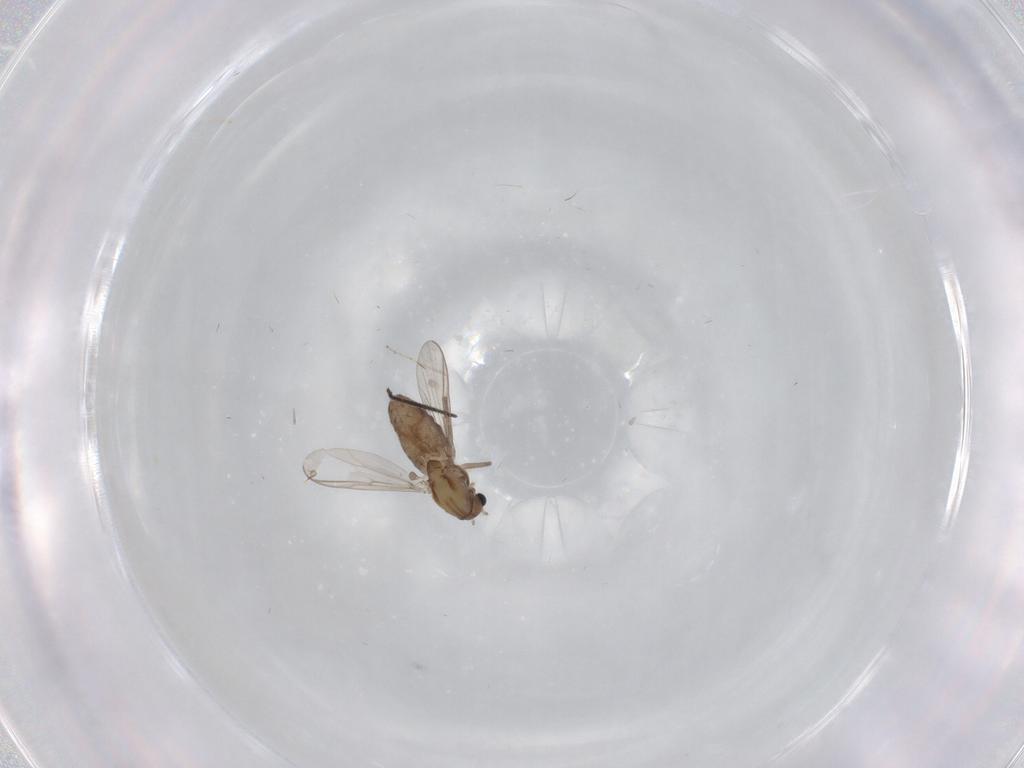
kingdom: Animalia
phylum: Arthropoda
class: Insecta
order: Diptera
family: Chironomidae
